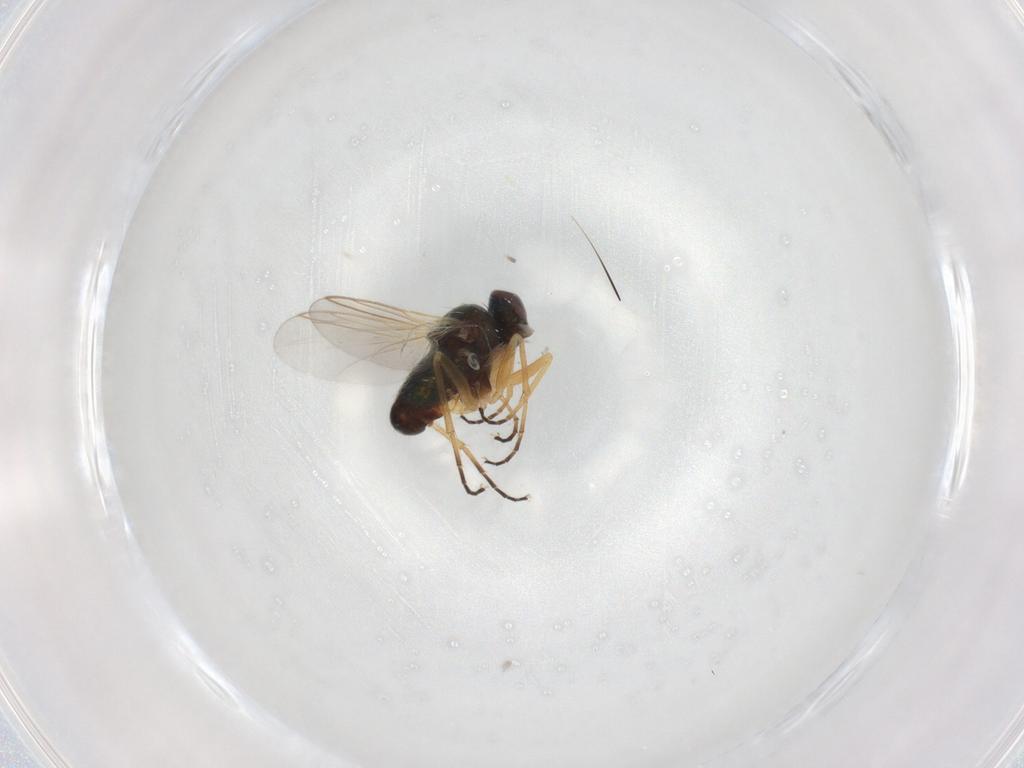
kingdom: Animalia
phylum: Arthropoda
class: Insecta
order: Diptera
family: Dolichopodidae
